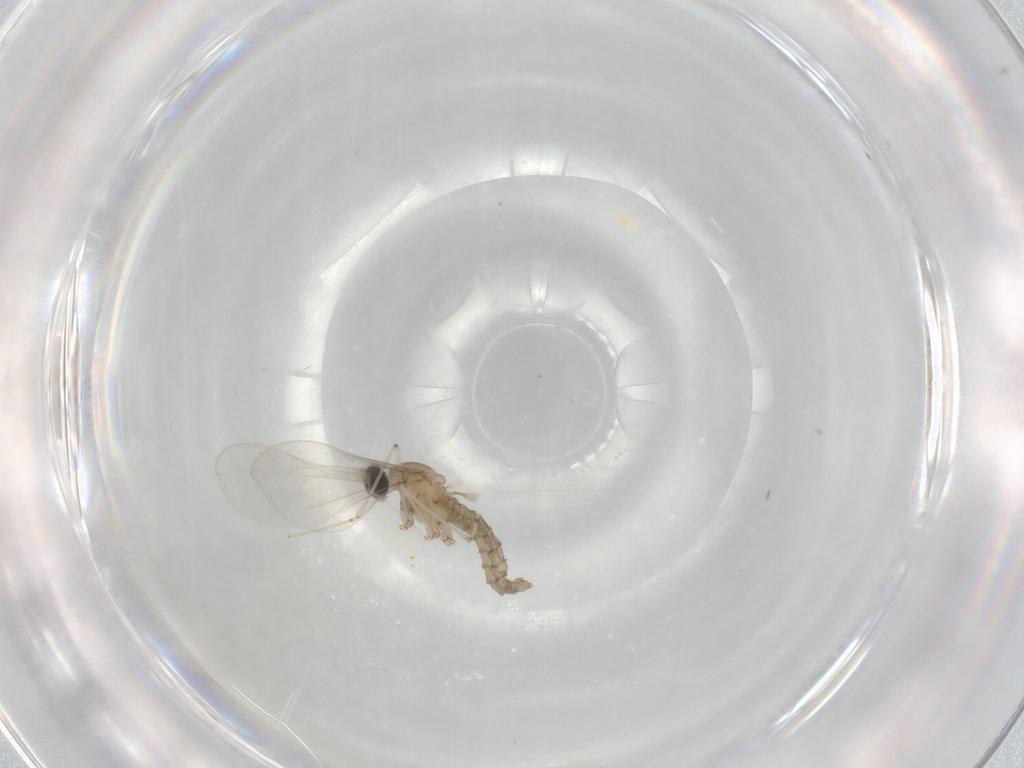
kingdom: Animalia
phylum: Arthropoda
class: Insecta
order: Diptera
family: Cecidomyiidae
